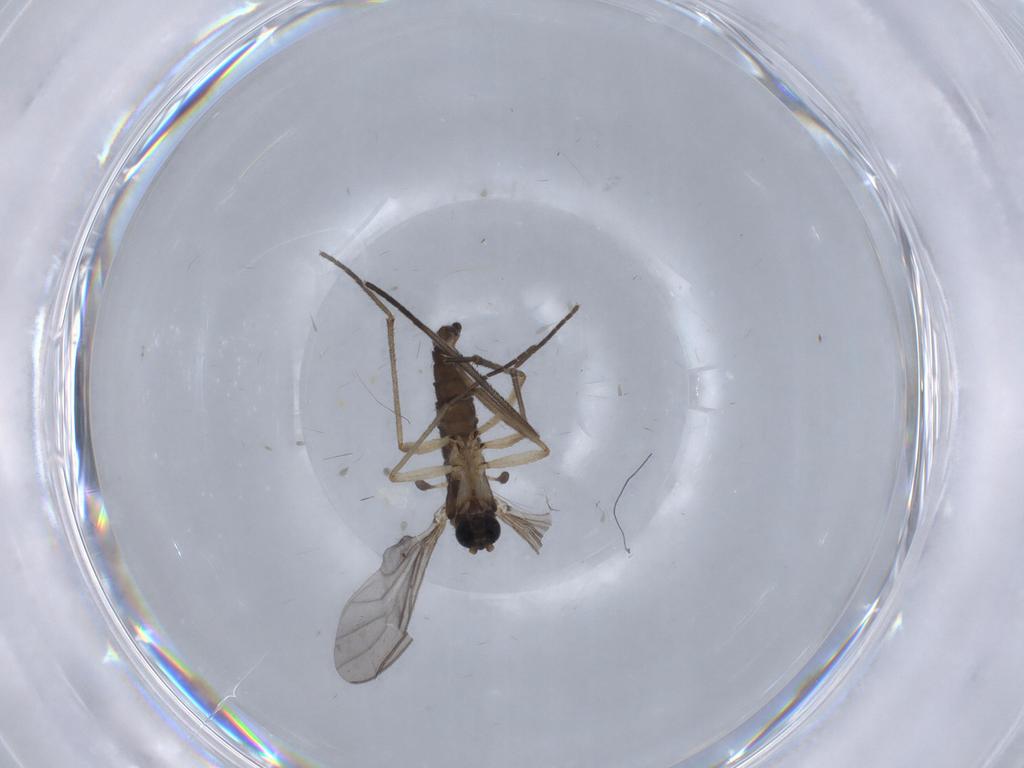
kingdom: Animalia
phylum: Arthropoda
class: Insecta
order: Diptera
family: Sciaridae
